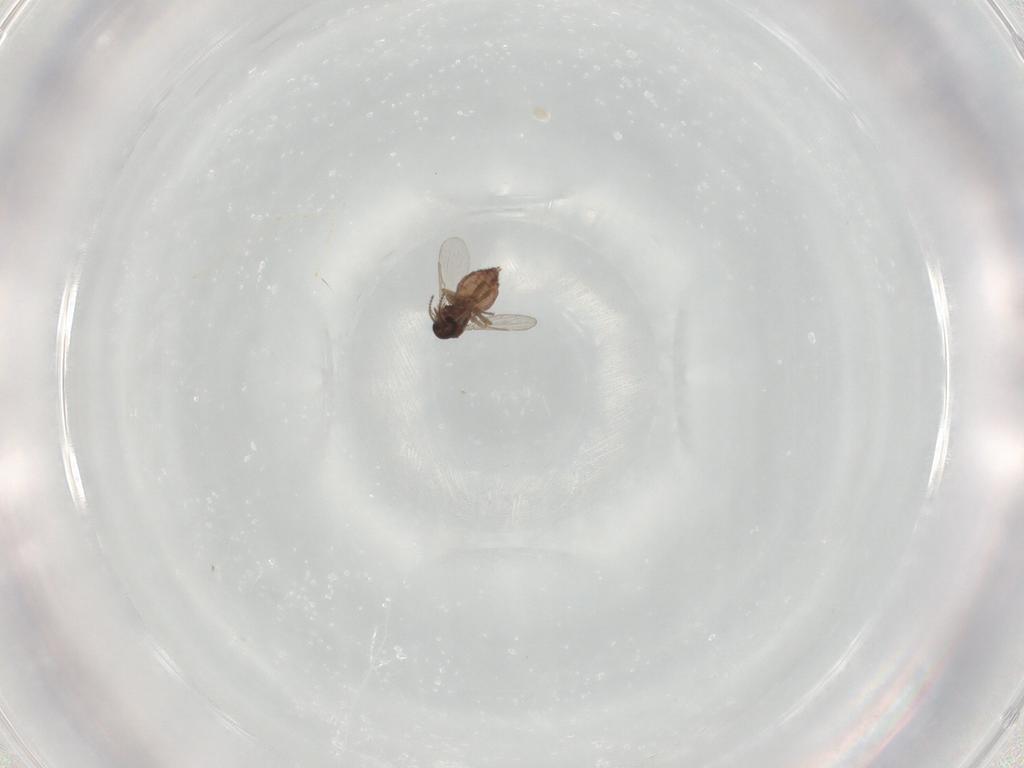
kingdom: Animalia
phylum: Arthropoda
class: Insecta
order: Diptera
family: Ceratopogonidae
